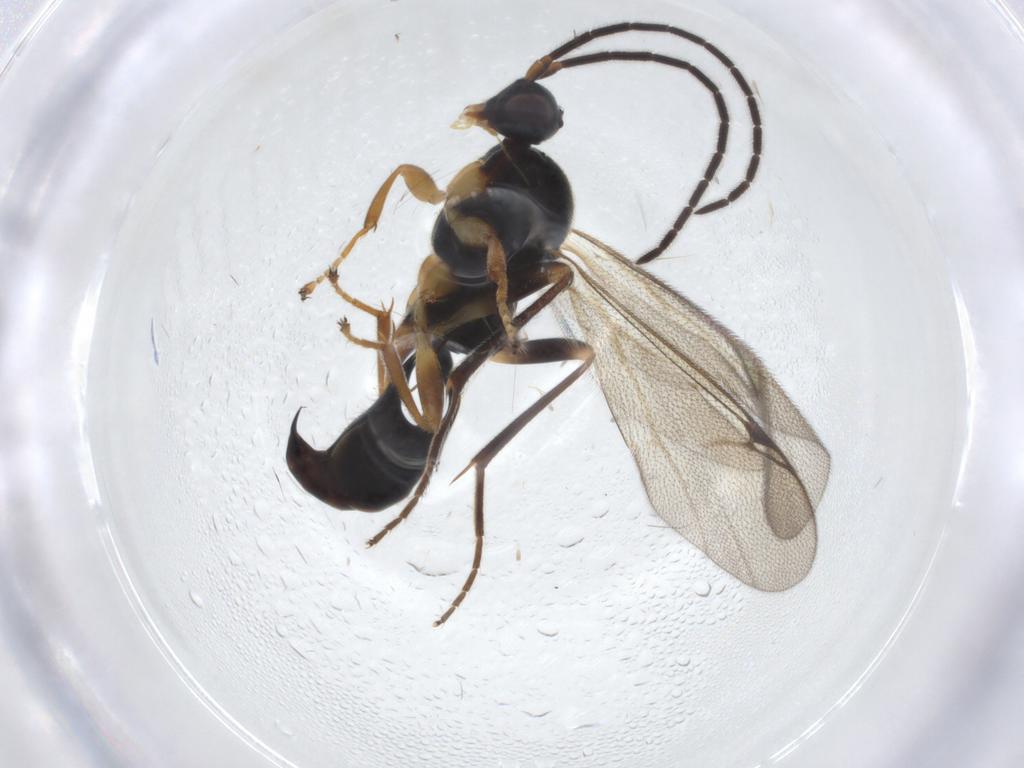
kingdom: Animalia
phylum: Arthropoda
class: Insecta
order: Hymenoptera
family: Proctotrupidae
